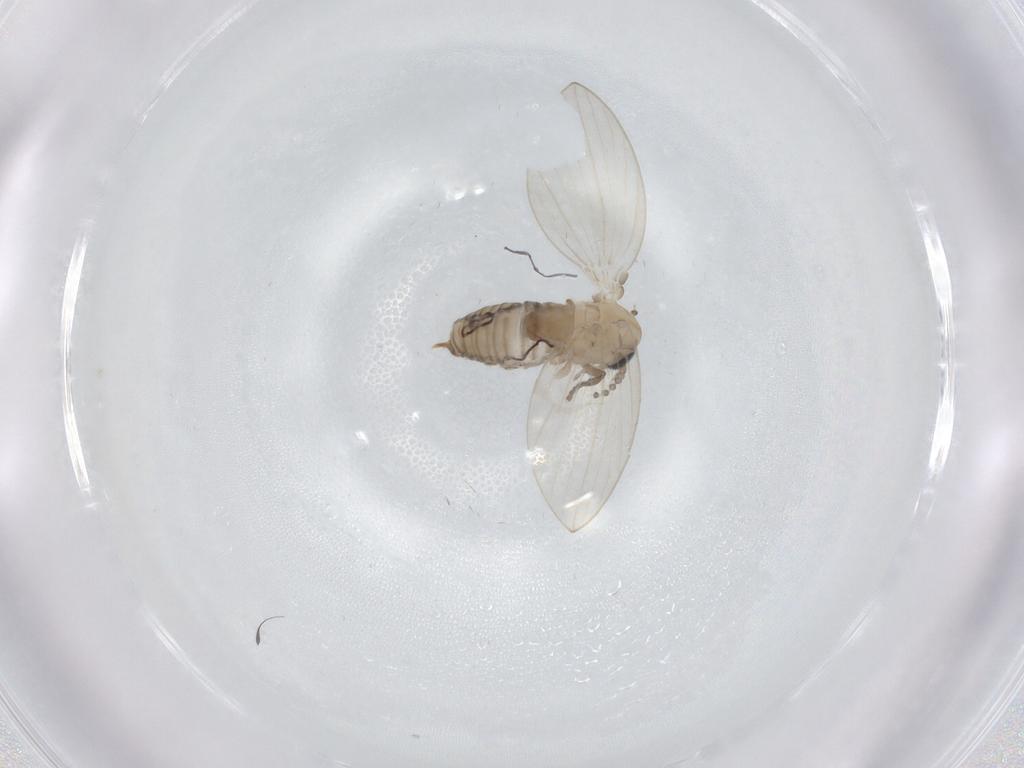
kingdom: Animalia
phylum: Arthropoda
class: Insecta
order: Diptera
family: Psychodidae
